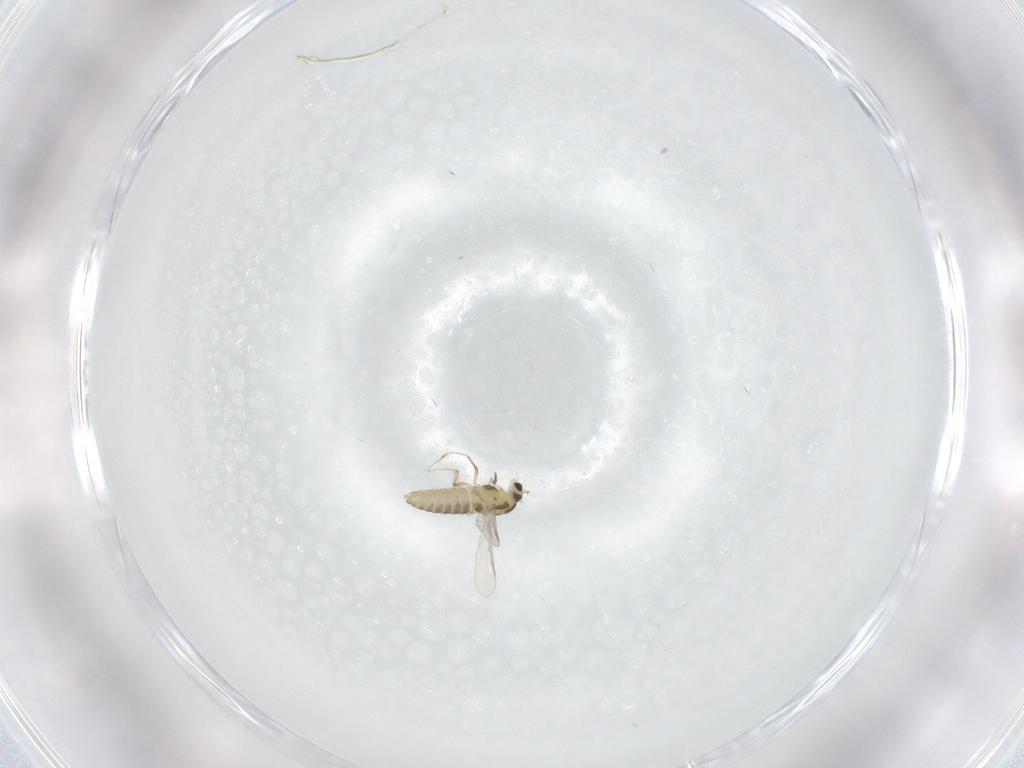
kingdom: Animalia
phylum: Arthropoda
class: Insecta
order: Diptera
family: Chironomidae
